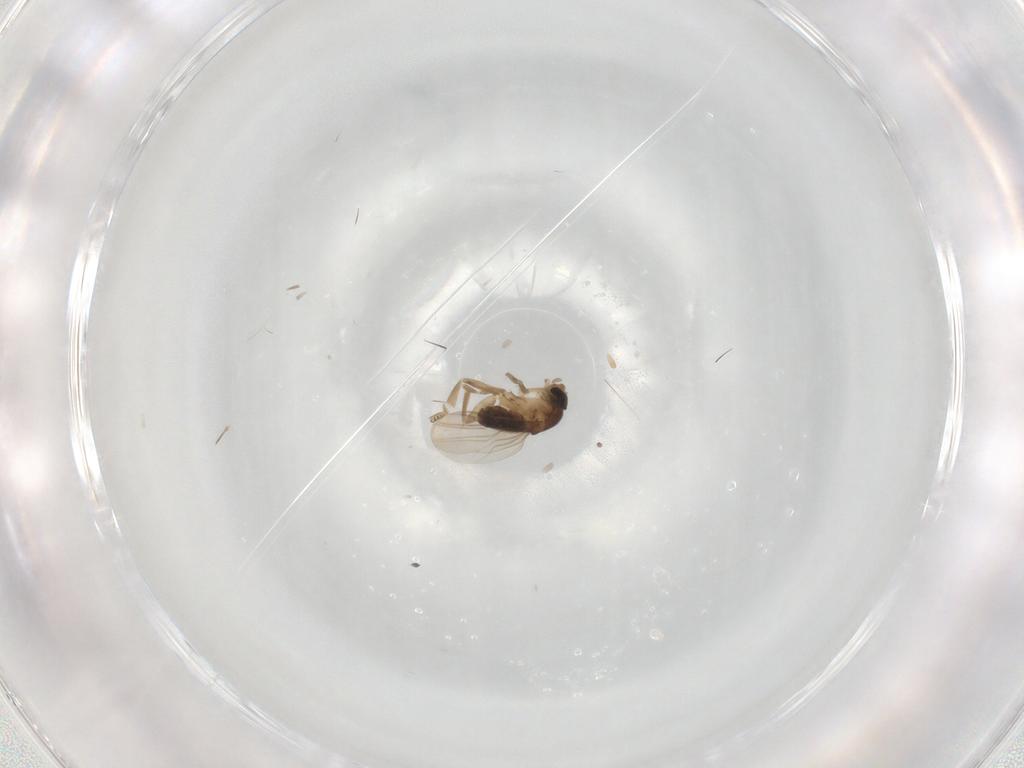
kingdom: Animalia
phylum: Arthropoda
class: Insecta
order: Diptera
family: Phoridae
